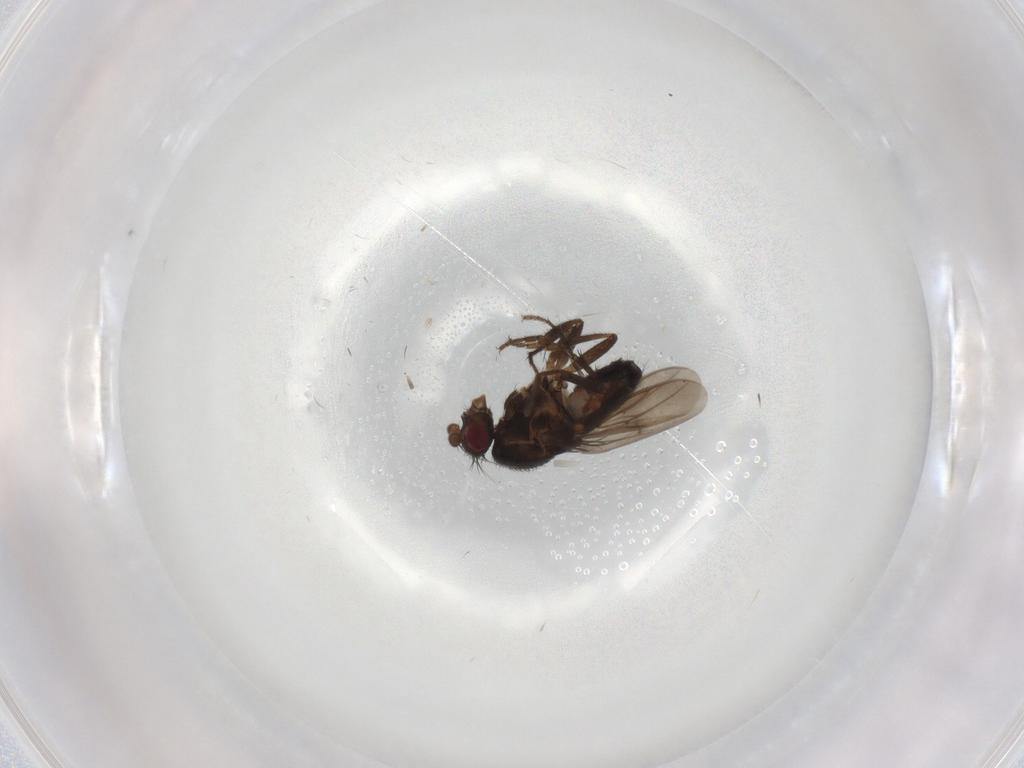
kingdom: Animalia
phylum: Arthropoda
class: Insecta
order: Diptera
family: Sphaeroceridae
